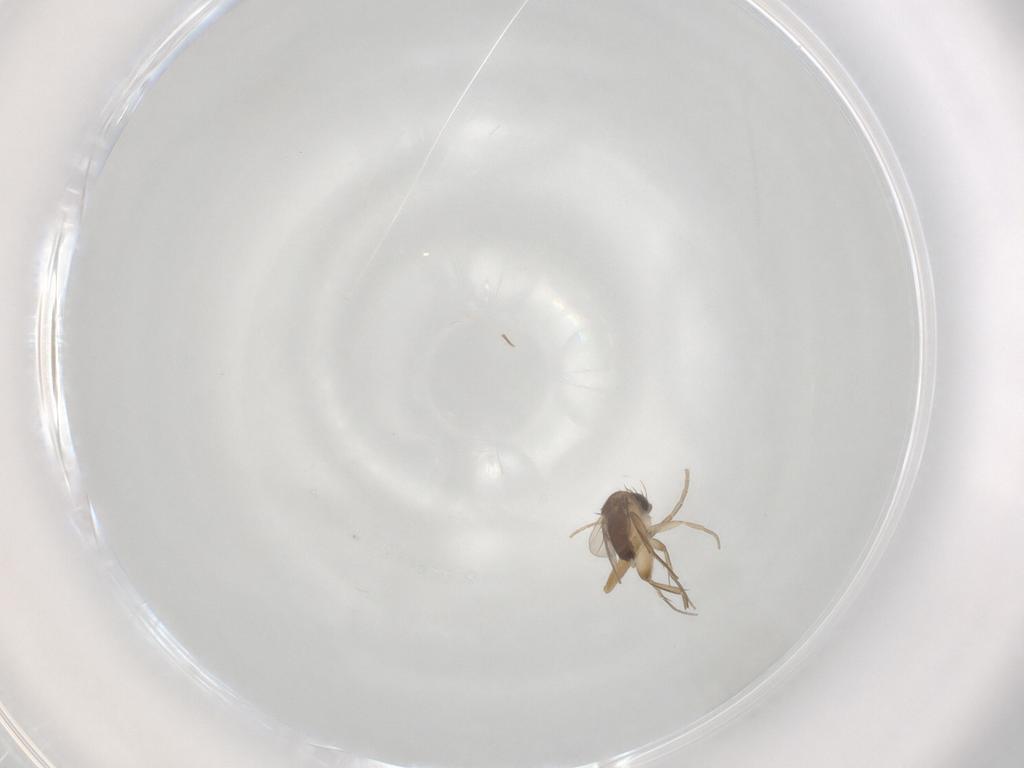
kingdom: Animalia
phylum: Arthropoda
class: Insecta
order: Diptera
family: Phoridae
